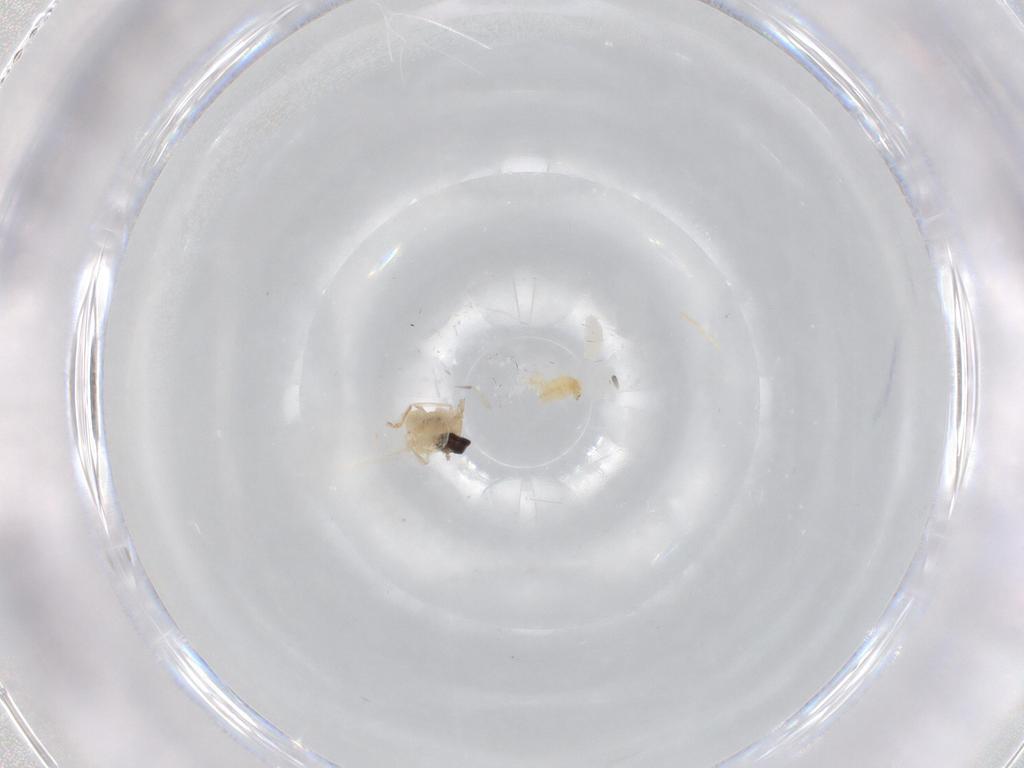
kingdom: Animalia
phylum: Arthropoda
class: Insecta
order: Diptera
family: Cecidomyiidae
